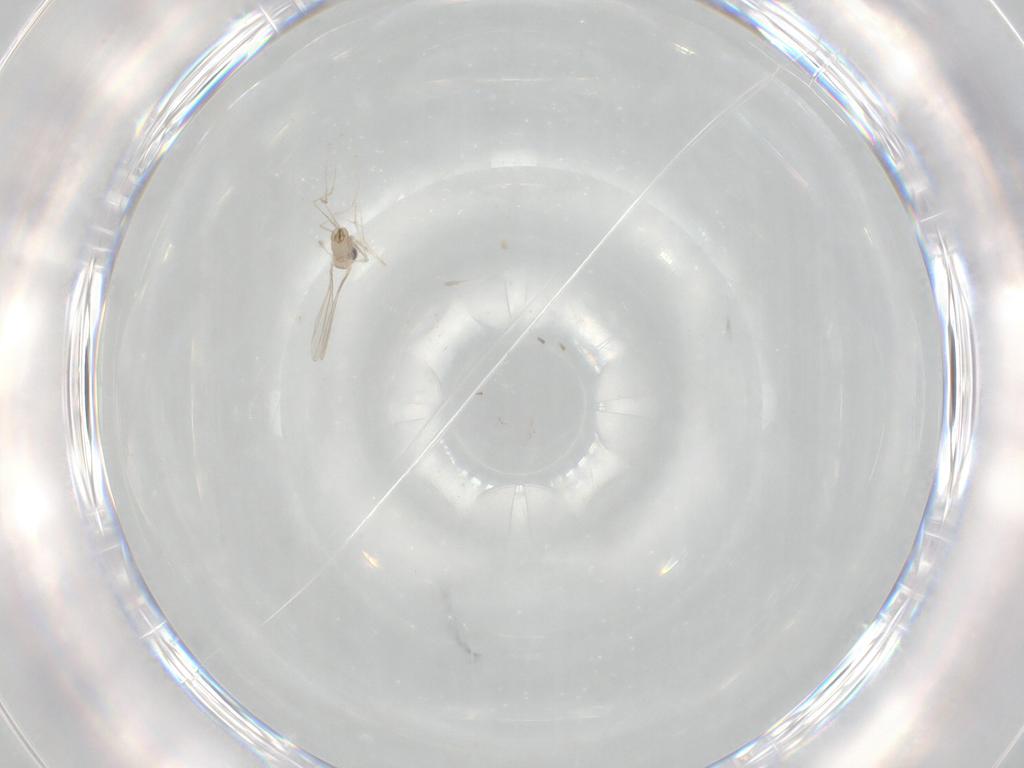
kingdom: Animalia
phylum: Arthropoda
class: Insecta
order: Diptera
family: Cecidomyiidae
